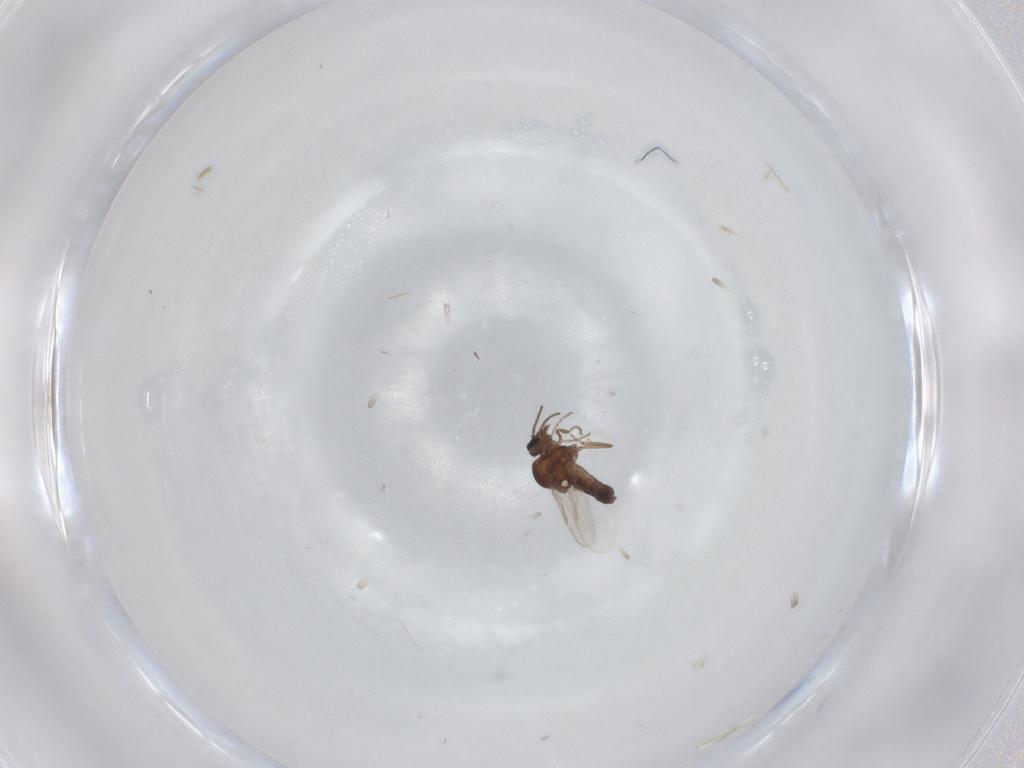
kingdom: Animalia
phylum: Arthropoda
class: Insecta
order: Diptera
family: Ceratopogonidae
